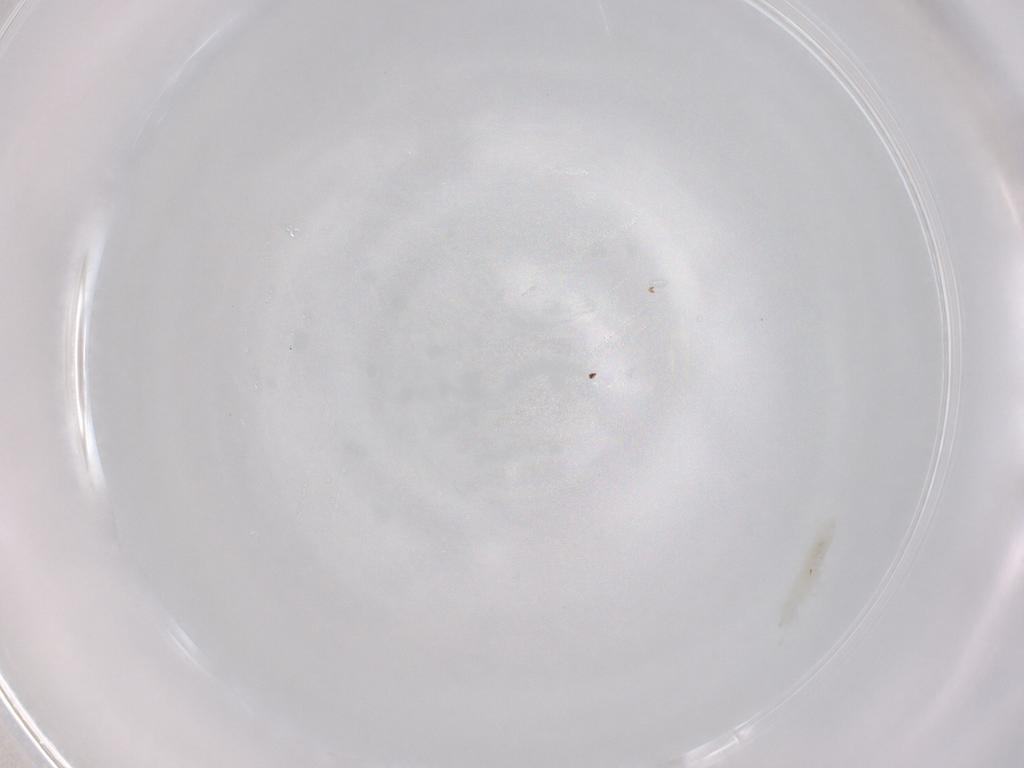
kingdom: Animalia
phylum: Arthropoda
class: Collembola
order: Poduromorpha
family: Onychiuridae
